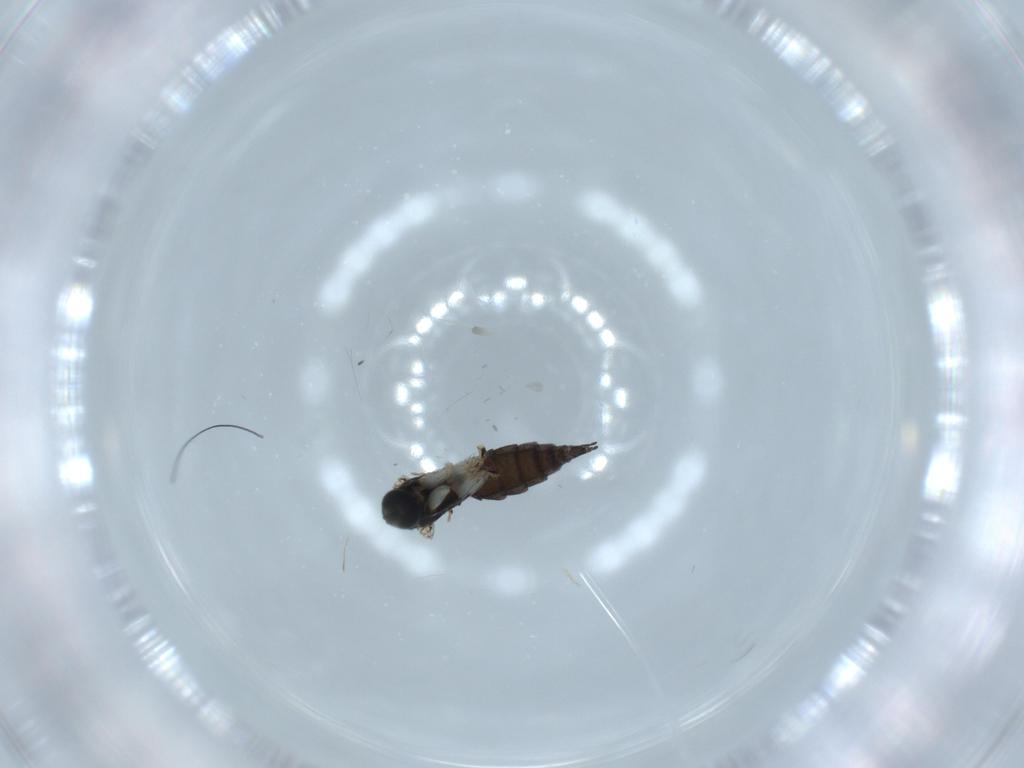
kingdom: Animalia
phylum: Arthropoda
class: Insecta
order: Diptera
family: Sciaridae
